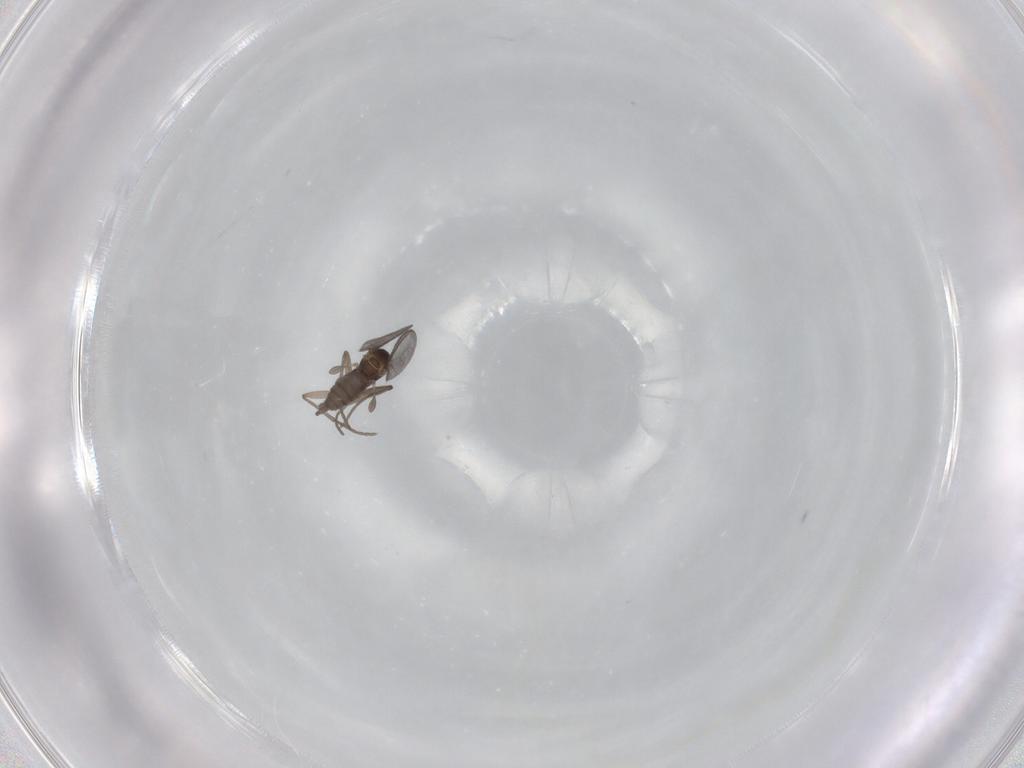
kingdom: Animalia
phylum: Arthropoda
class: Insecta
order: Diptera
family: Sciaridae
